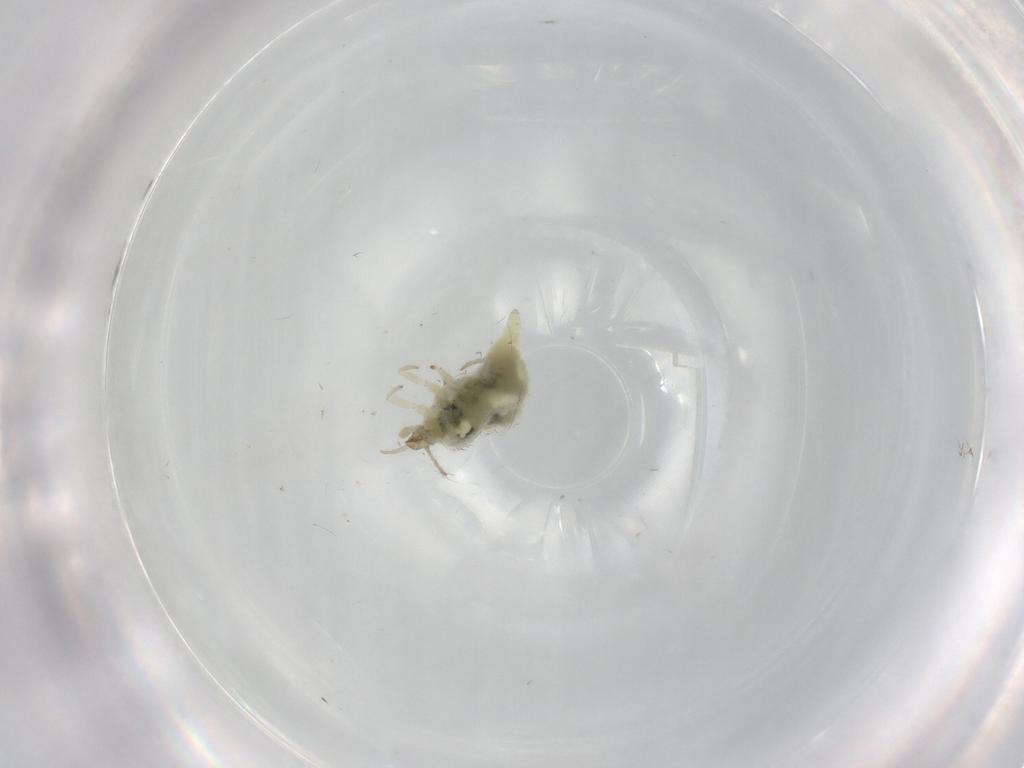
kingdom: Animalia
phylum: Arthropoda
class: Insecta
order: Neuroptera
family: Coniopterygidae
